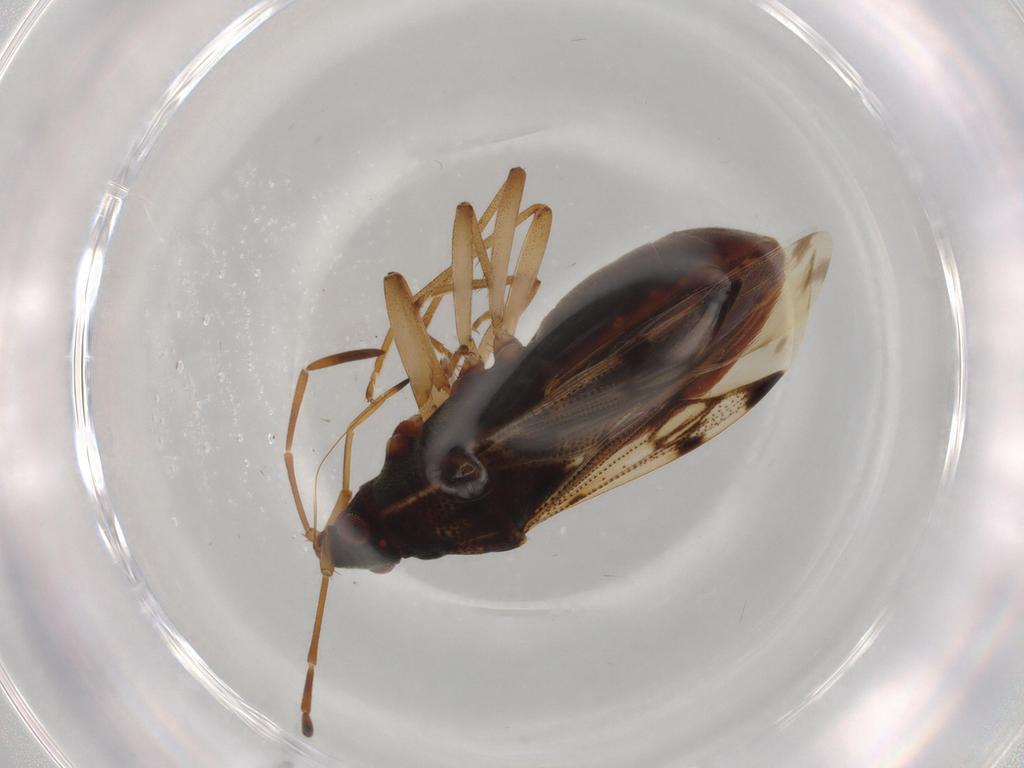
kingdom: Animalia
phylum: Arthropoda
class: Insecta
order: Hemiptera
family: Rhyparochromidae
